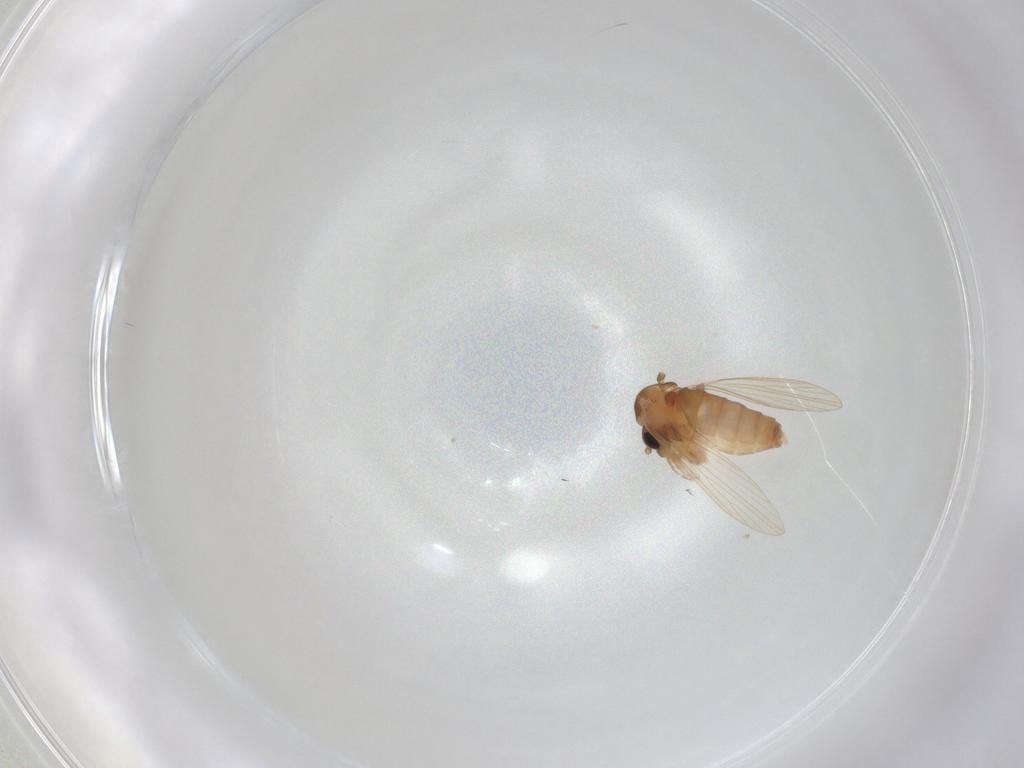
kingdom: Animalia
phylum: Arthropoda
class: Insecta
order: Diptera
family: Psychodidae
